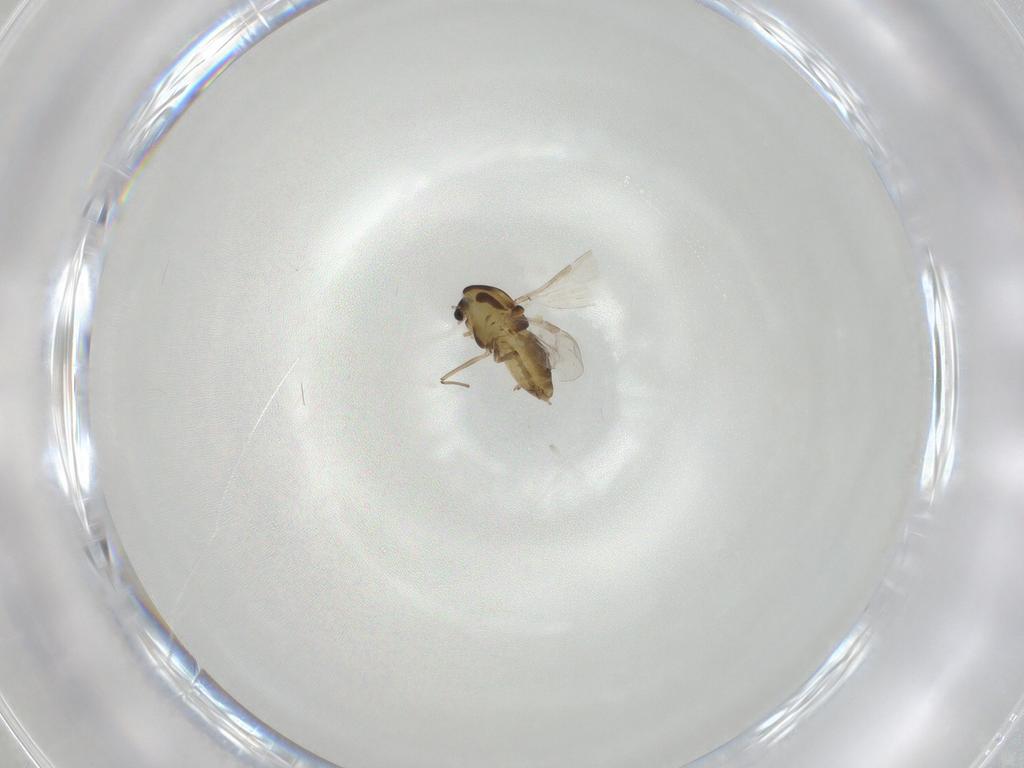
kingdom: Animalia
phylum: Arthropoda
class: Insecta
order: Diptera
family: Chironomidae
